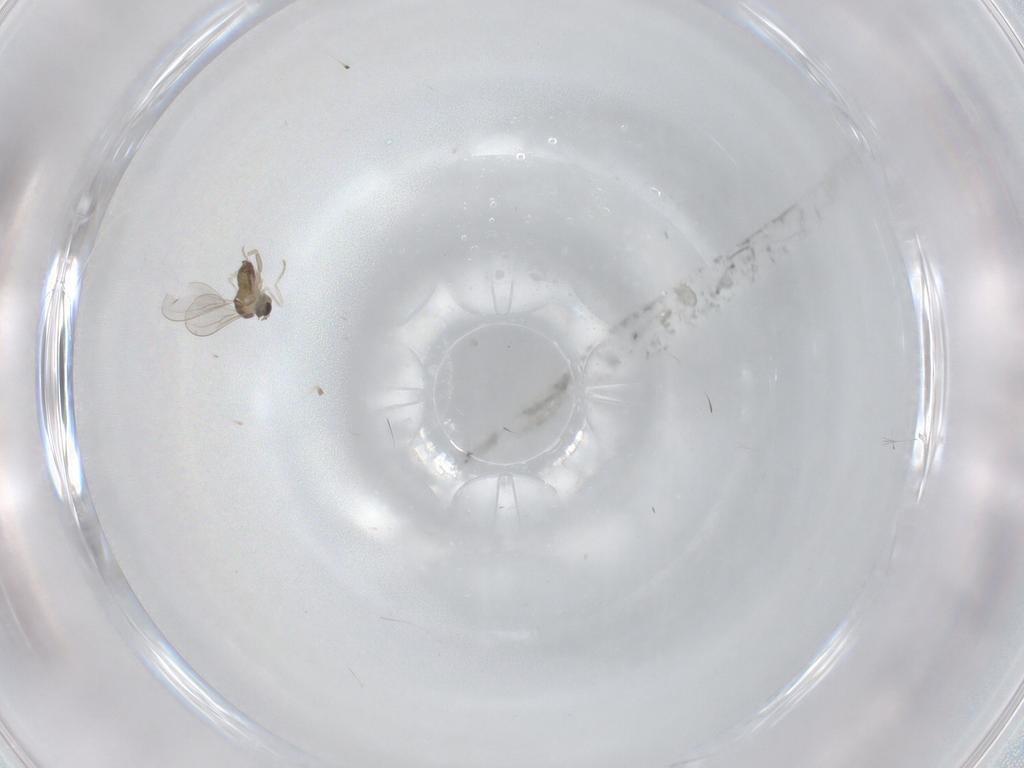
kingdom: Animalia
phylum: Arthropoda
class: Insecta
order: Diptera
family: Cecidomyiidae
